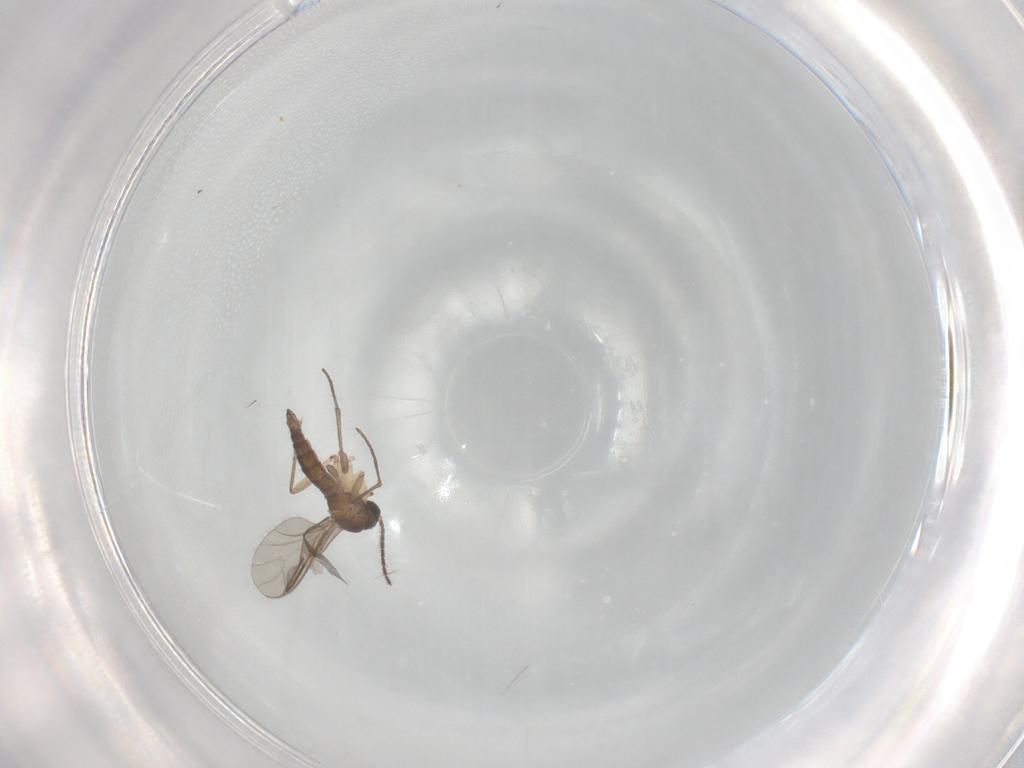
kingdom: Animalia
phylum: Arthropoda
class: Insecta
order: Diptera
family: Sciaridae
